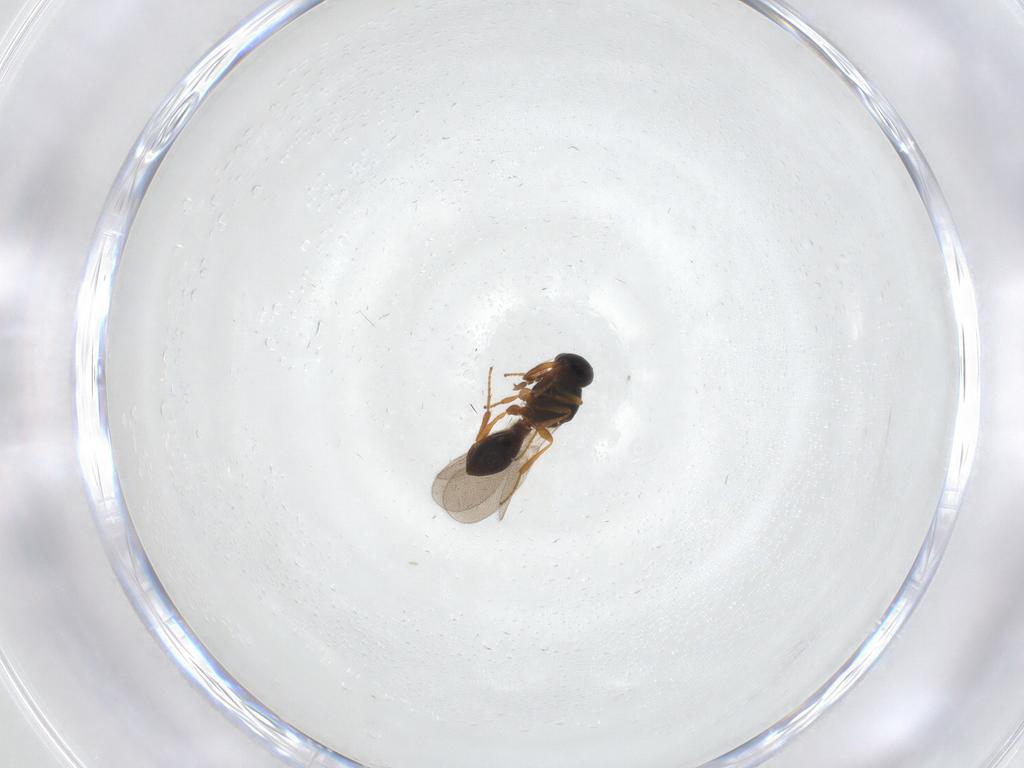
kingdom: Animalia
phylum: Arthropoda
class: Insecta
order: Hymenoptera
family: Platygastridae
